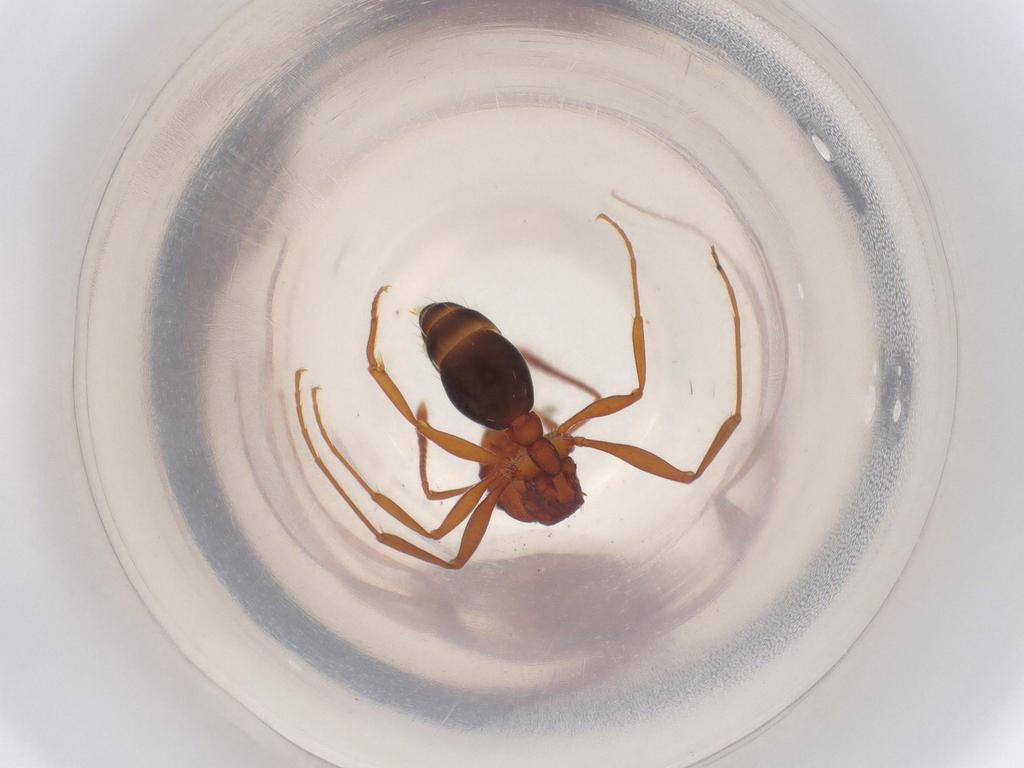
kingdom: Animalia
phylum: Arthropoda
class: Insecta
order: Hymenoptera
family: Formicidae
